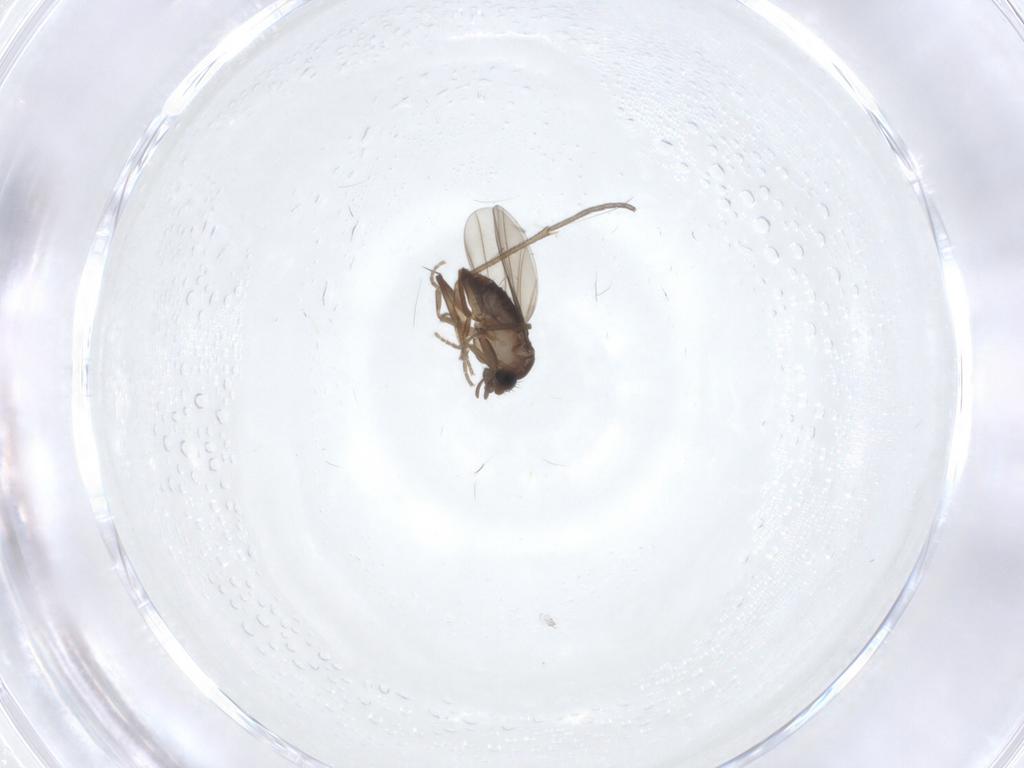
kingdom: Animalia
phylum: Arthropoda
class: Insecta
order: Diptera
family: Sciaridae
